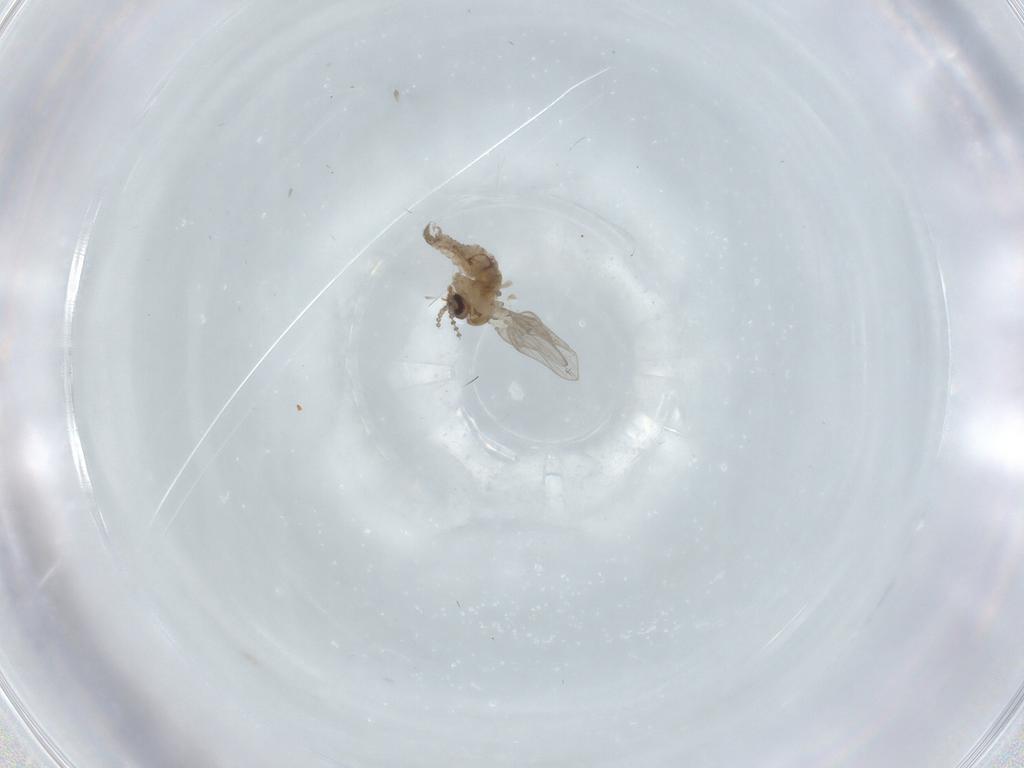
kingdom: Animalia
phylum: Arthropoda
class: Insecta
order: Diptera
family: Psychodidae
